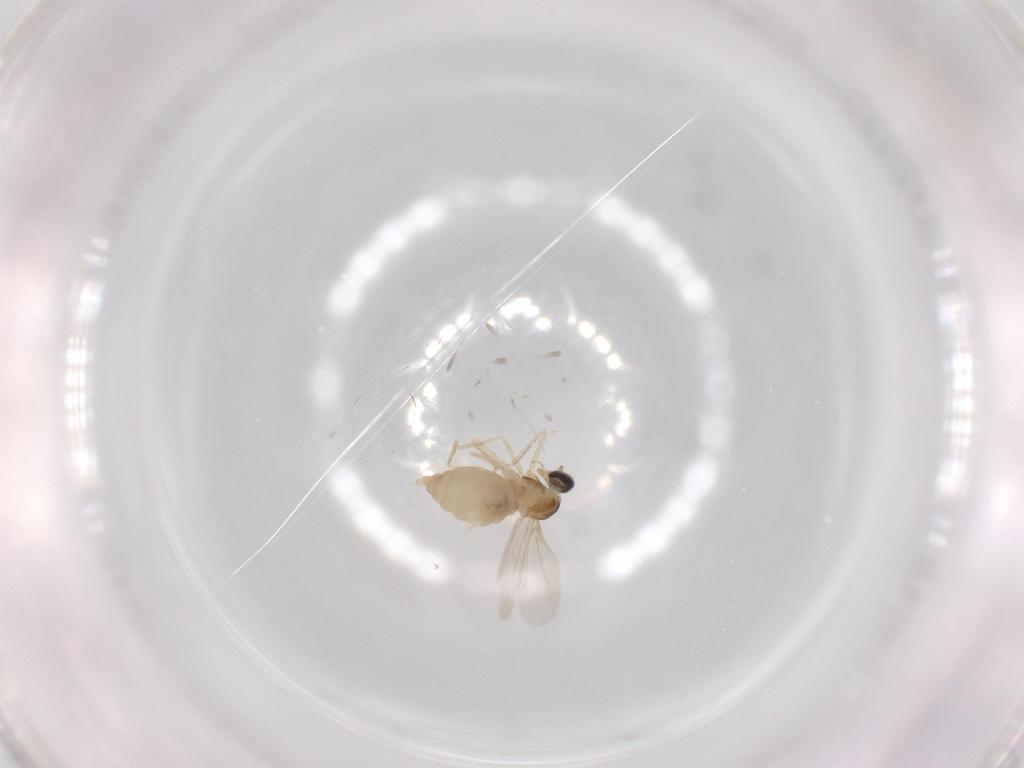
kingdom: Animalia
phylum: Arthropoda
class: Insecta
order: Diptera
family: Cecidomyiidae
